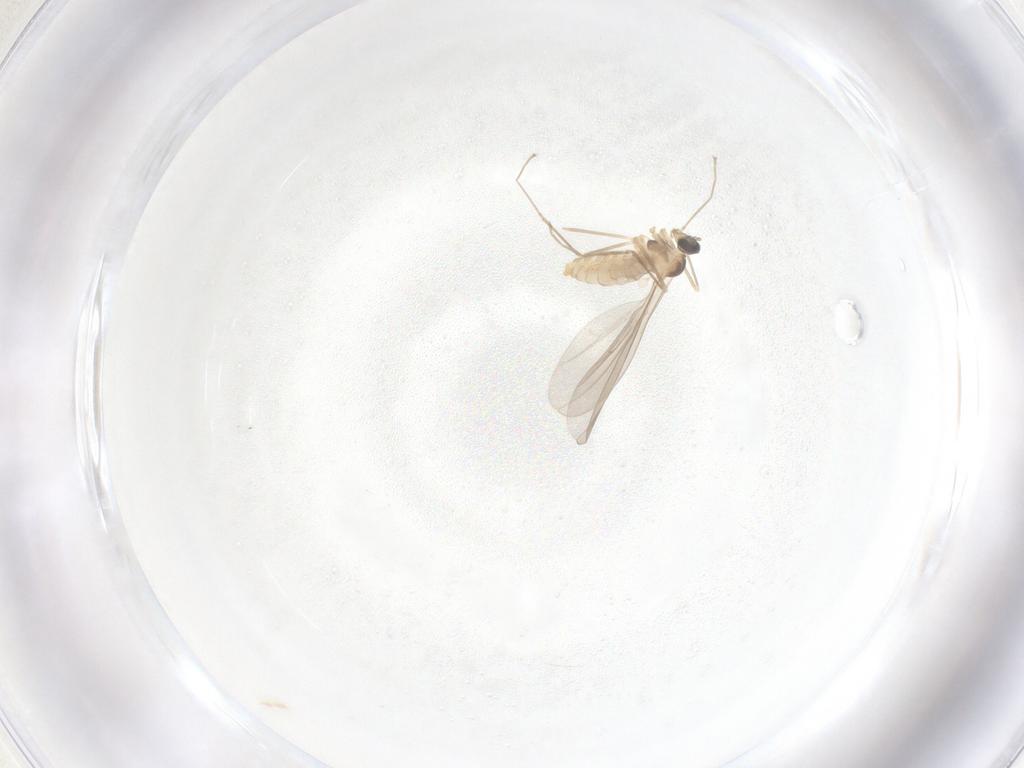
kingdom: Animalia
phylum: Arthropoda
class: Insecta
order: Diptera
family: Cecidomyiidae
